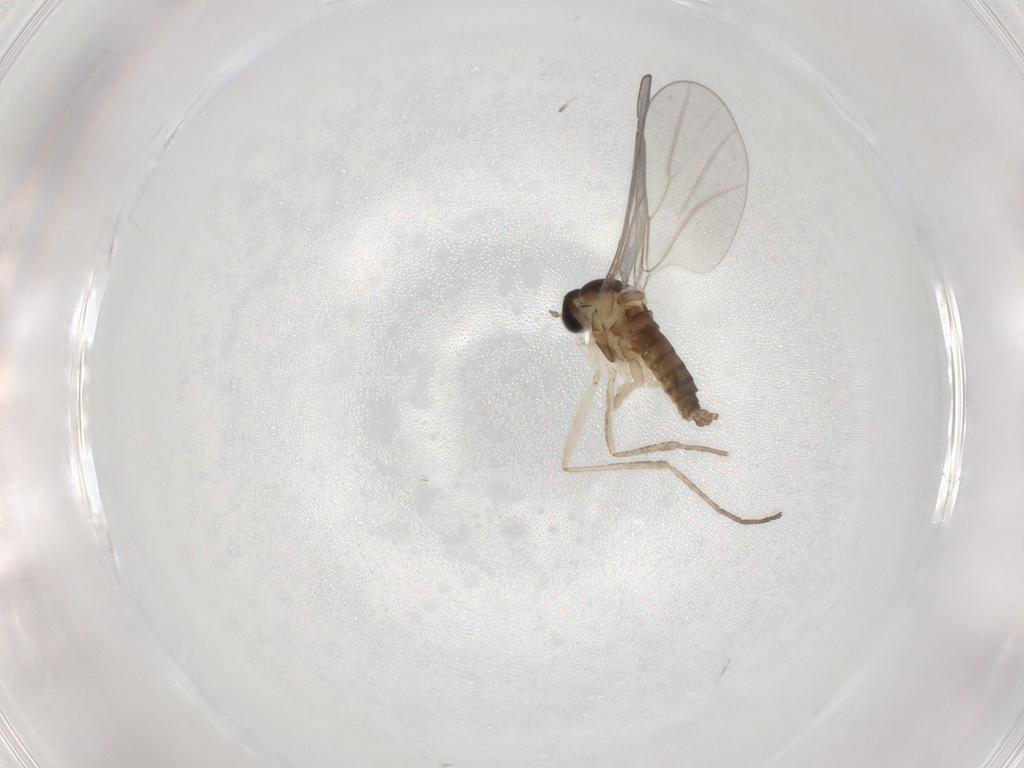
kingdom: Animalia
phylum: Arthropoda
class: Insecta
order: Diptera
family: Cecidomyiidae
